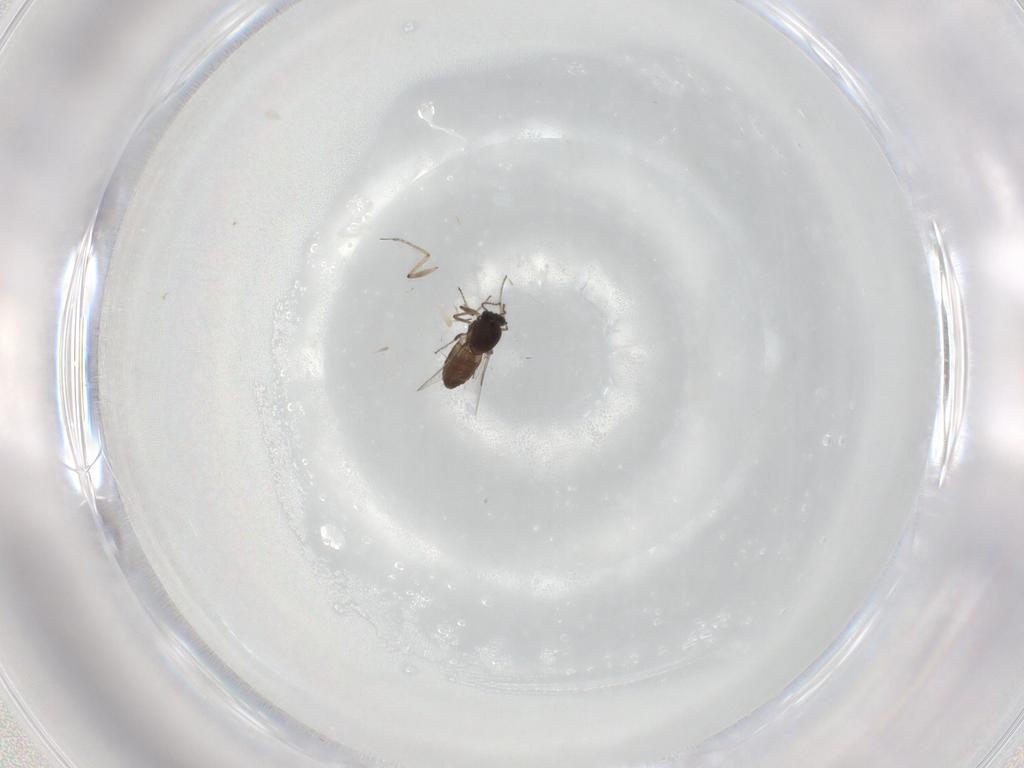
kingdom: Animalia
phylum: Arthropoda
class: Insecta
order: Diptera
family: Ceratopogonidae
